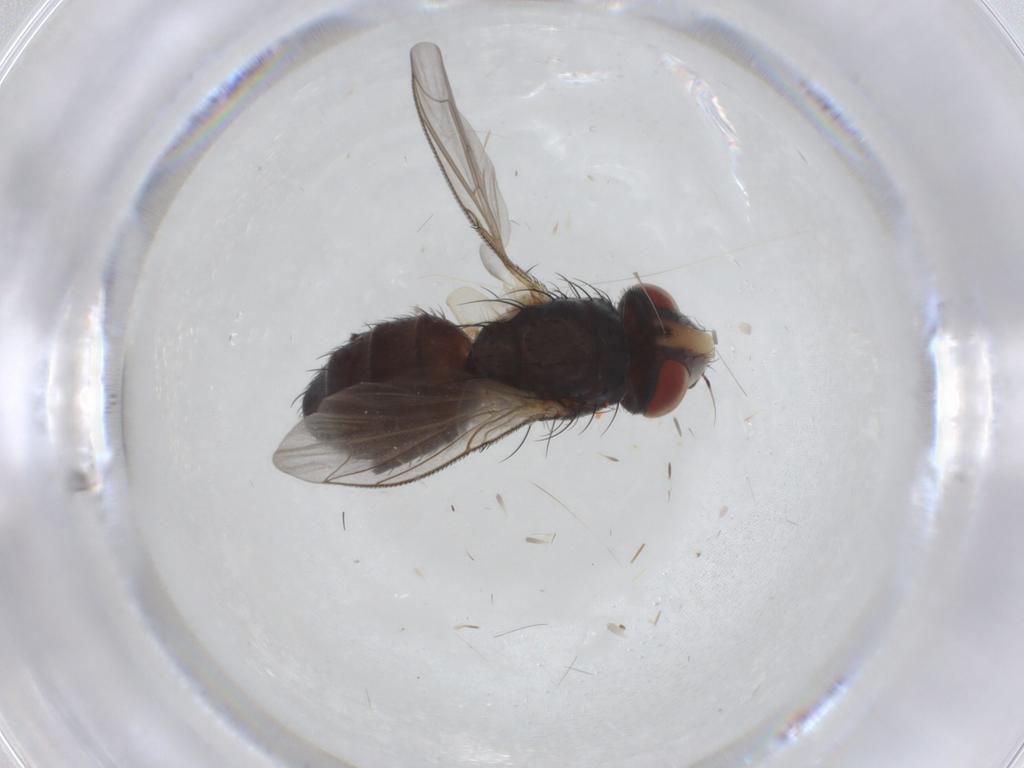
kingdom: Animalia
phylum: Arthropoda
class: Insecta
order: Diptera
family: Sarcophagidae
